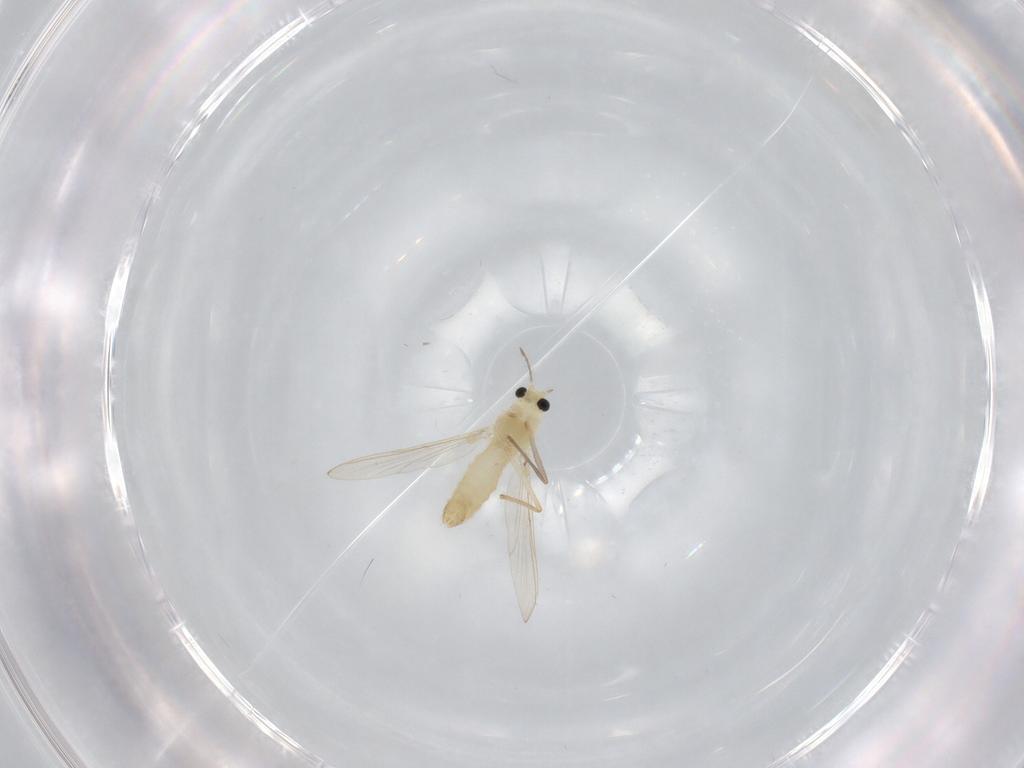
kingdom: Animalia
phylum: Arthropoda
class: Insecta
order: Diptera
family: Chironomidae
